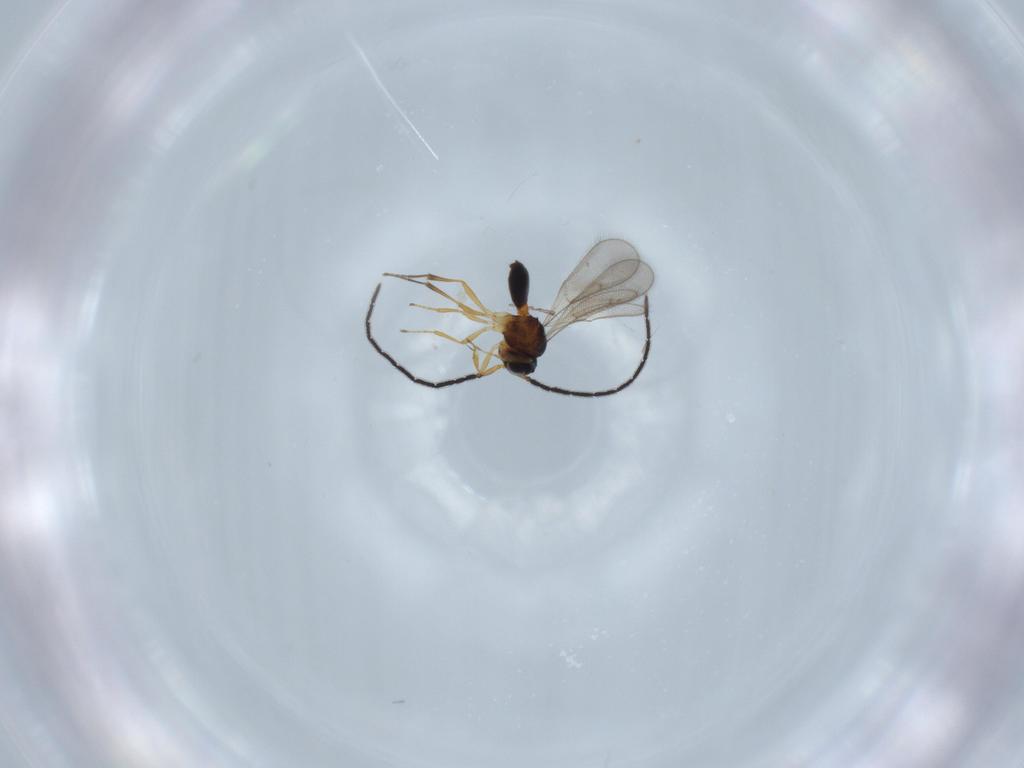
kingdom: Animalia
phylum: Arthropoda
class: Insecta
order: Hymenoptera
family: Scelionidae
